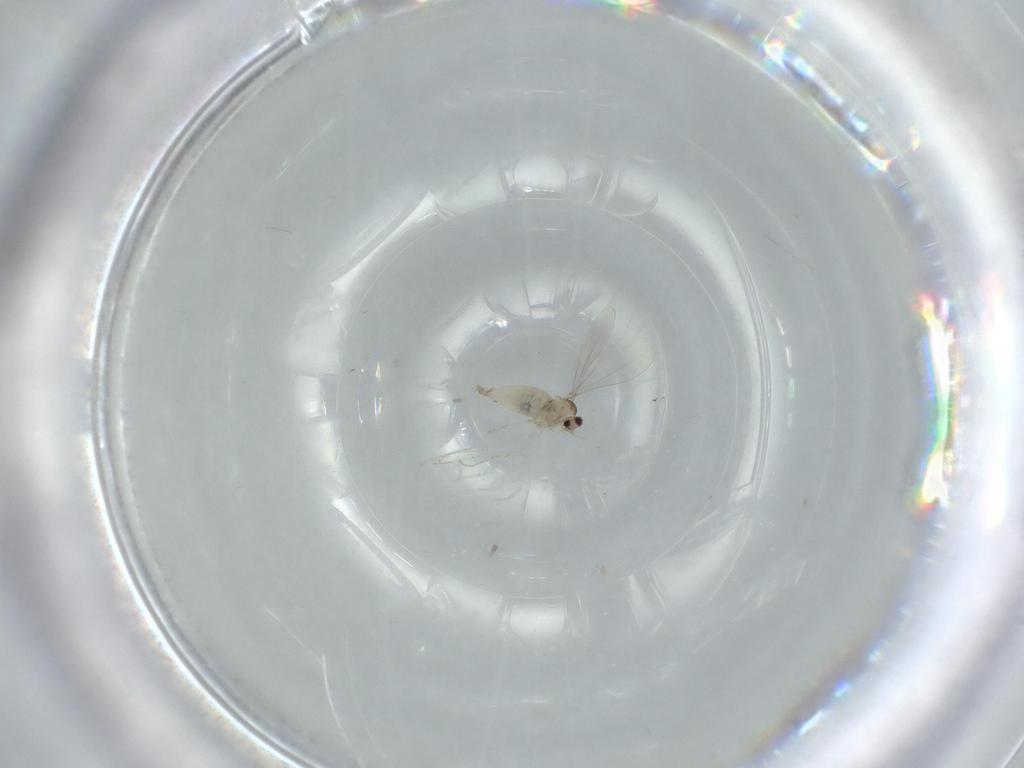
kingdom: Animalia
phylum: Arthropoda
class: Insecta
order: Diptera
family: Cecidomyiidae
